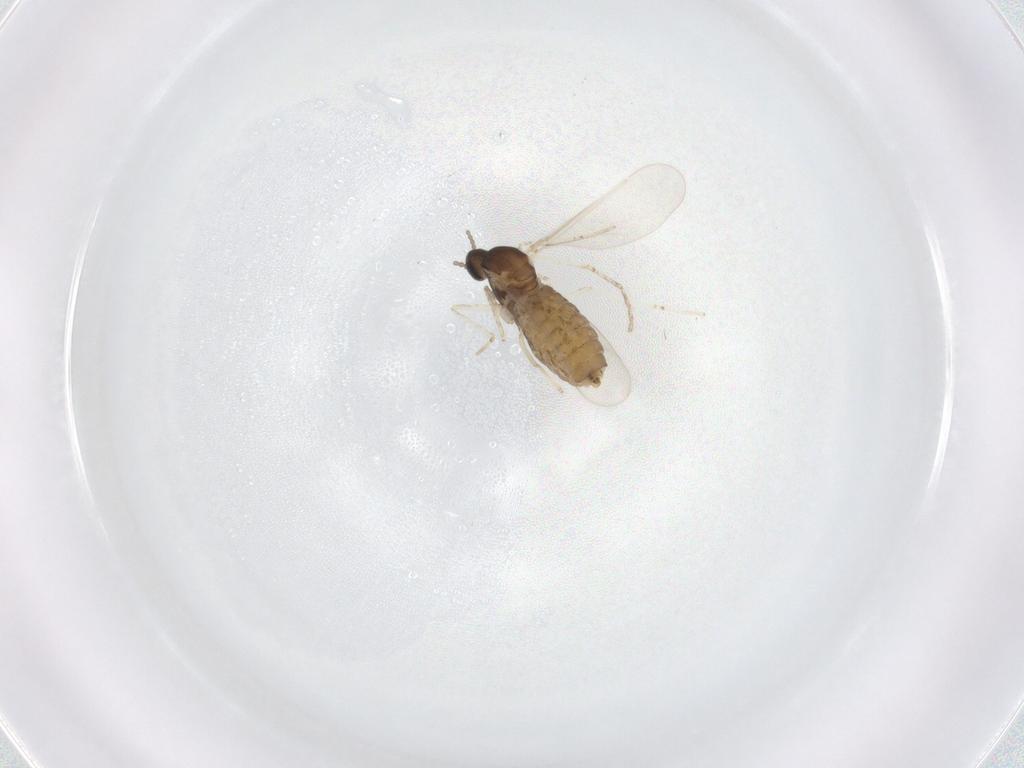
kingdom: Animalia
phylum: Arthropoda
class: Insecta
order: Diptera
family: Cecidomyiidae
